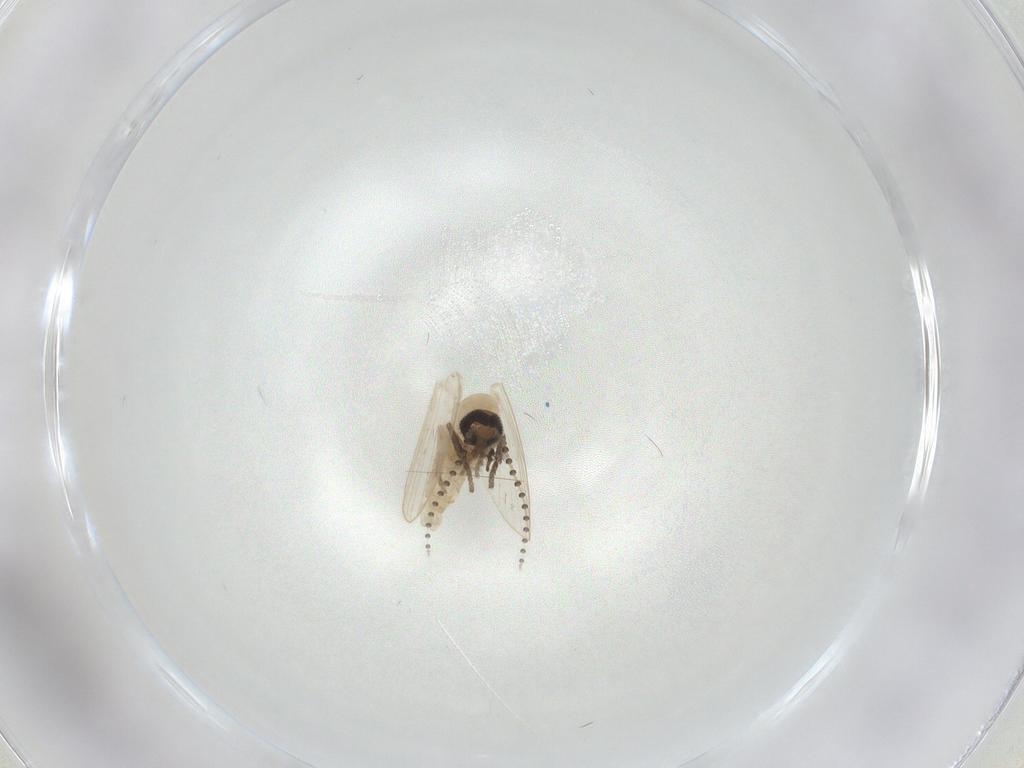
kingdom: Animalia
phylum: Arthropoda
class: Insecta
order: Diptera
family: Psychodidae
